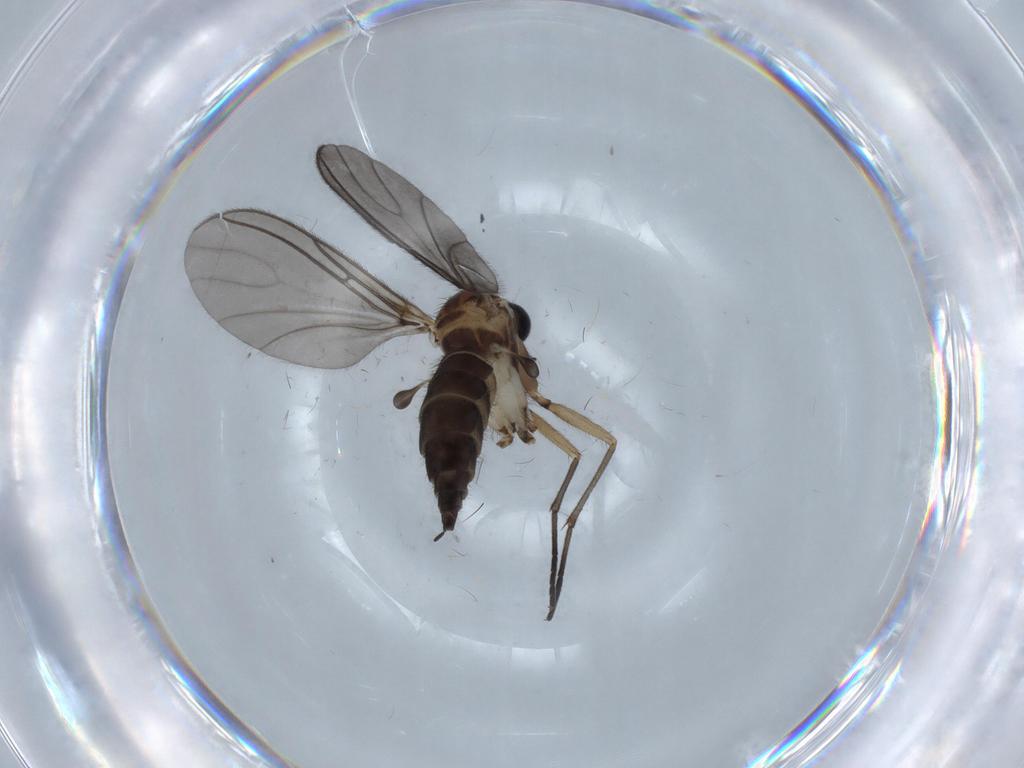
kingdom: Animalia
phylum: Arthropoda
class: Insecta
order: Diptera
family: Sciaridae
